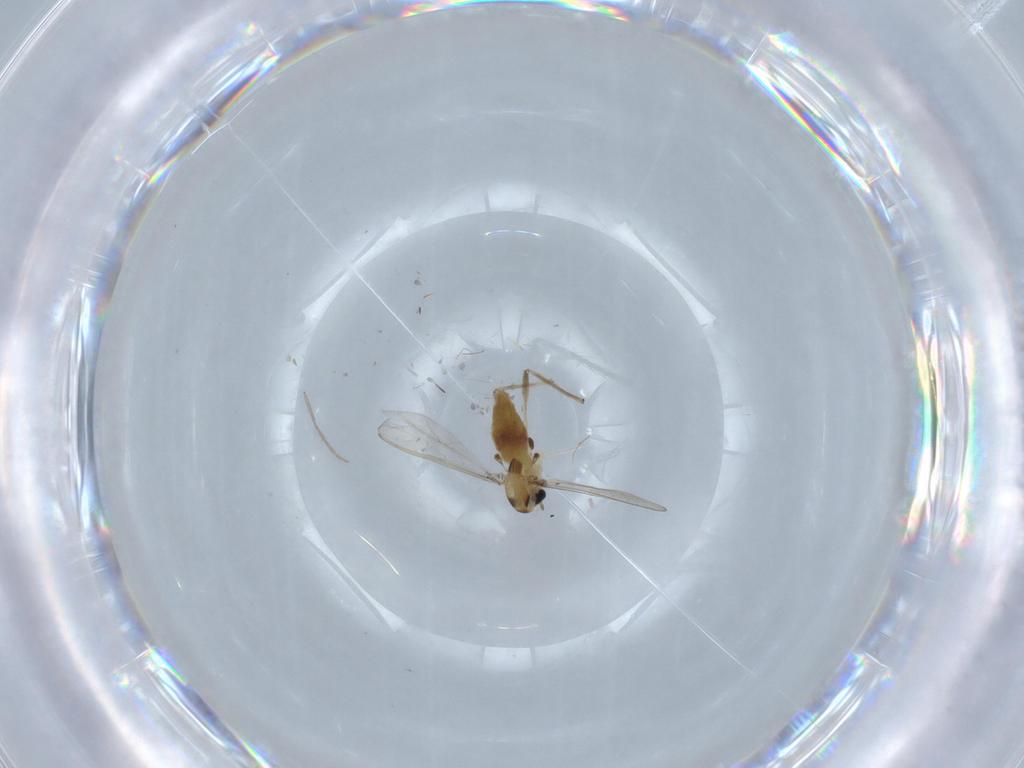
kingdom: Animalia
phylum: Arthropoda
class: Insecta
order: Diptera
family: Chironomidae
